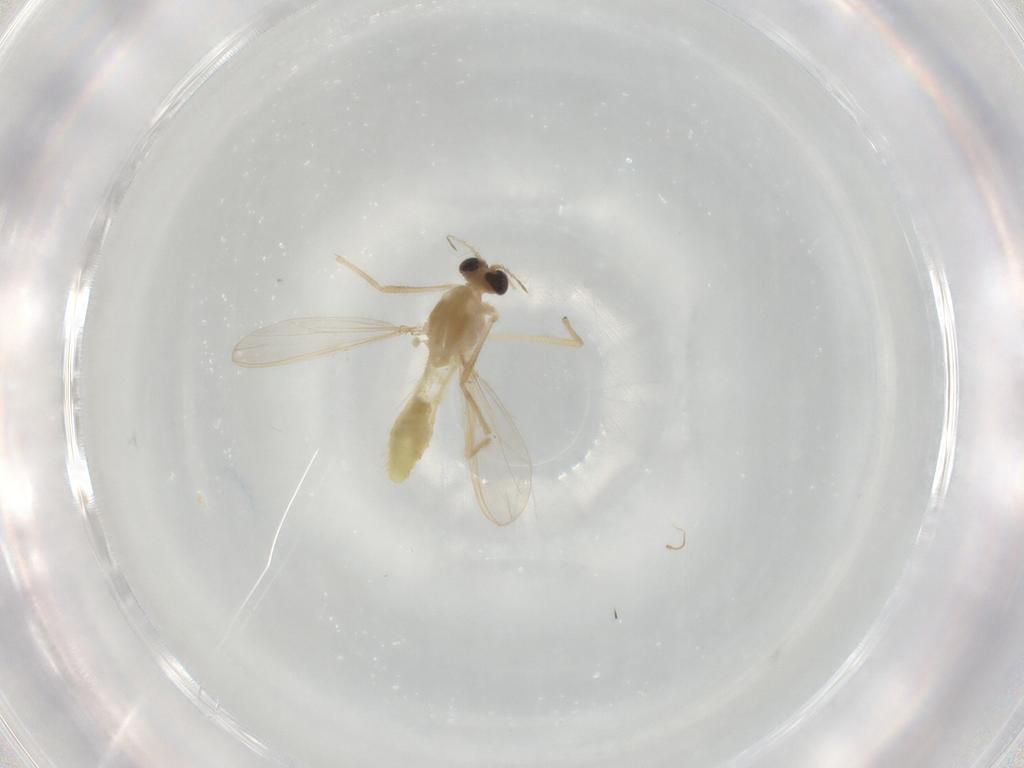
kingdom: Animalia
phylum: Arthropoda
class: Insecta
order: Diptera
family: Chironomidae
